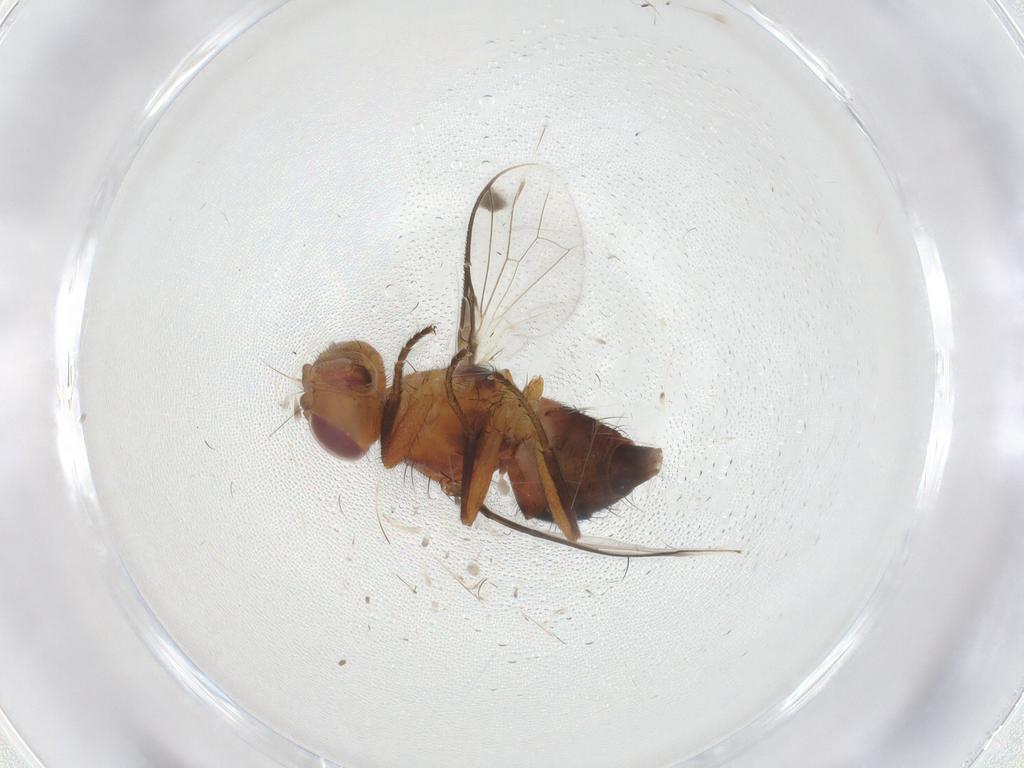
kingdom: Animalia
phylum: Arthropoda
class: Insecta
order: Diptera
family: Richardiidae
